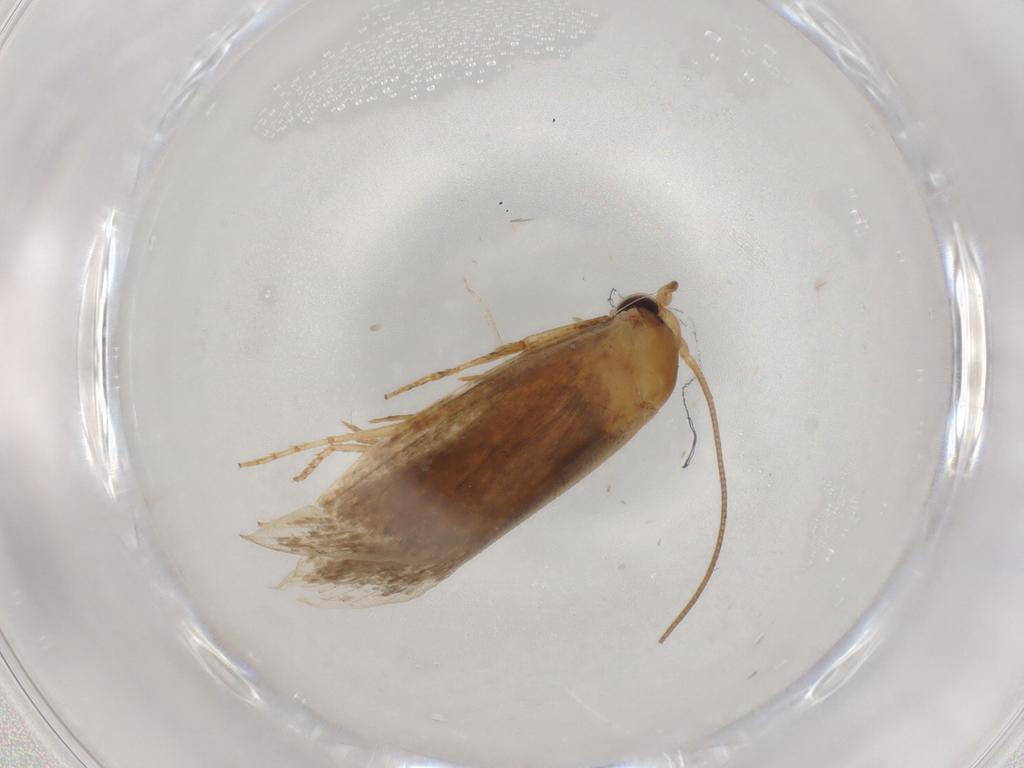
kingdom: Animalia
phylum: Arthropoda
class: Insecta
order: Lepidoptera
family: Tineidae
